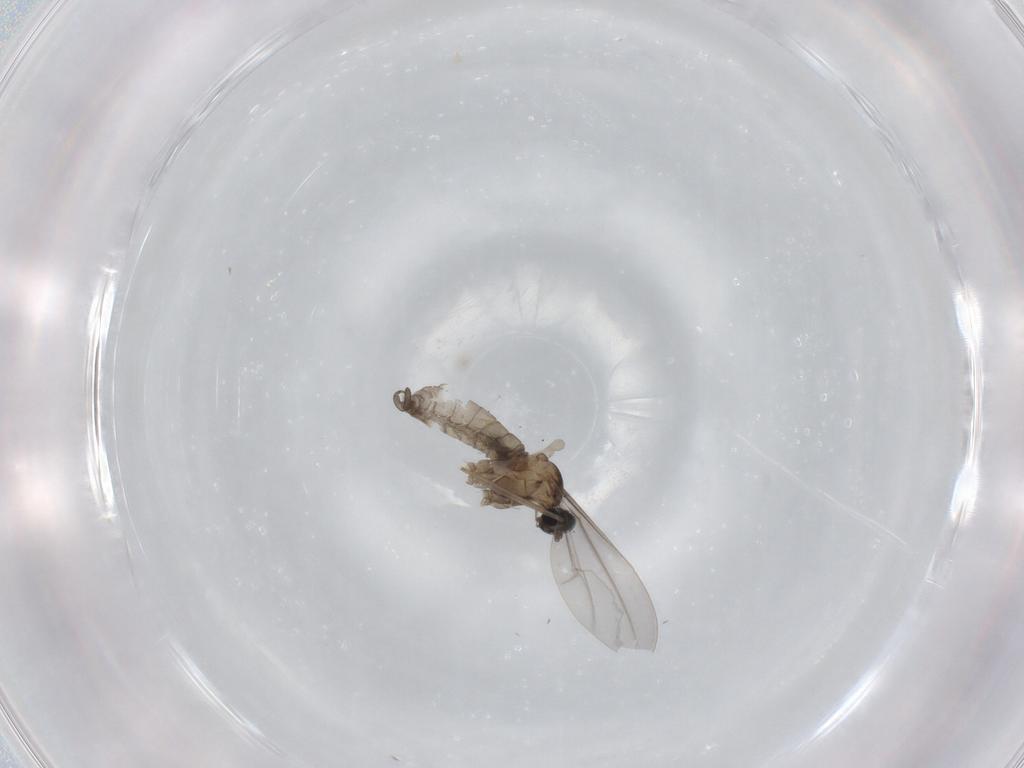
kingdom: Animalia
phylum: Arthropoda
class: Insecta
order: Diptera
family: Cecidomyiidae
